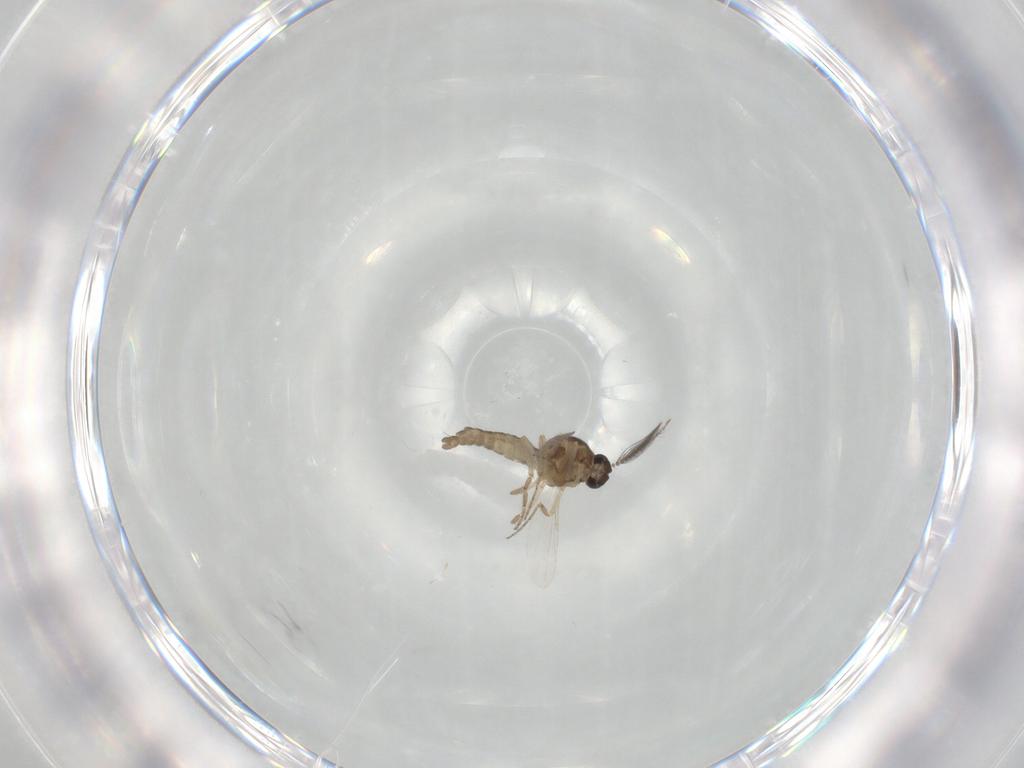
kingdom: Animalia
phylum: Arthropoda
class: Insecta
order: Diptera
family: Ceratopogonidae
